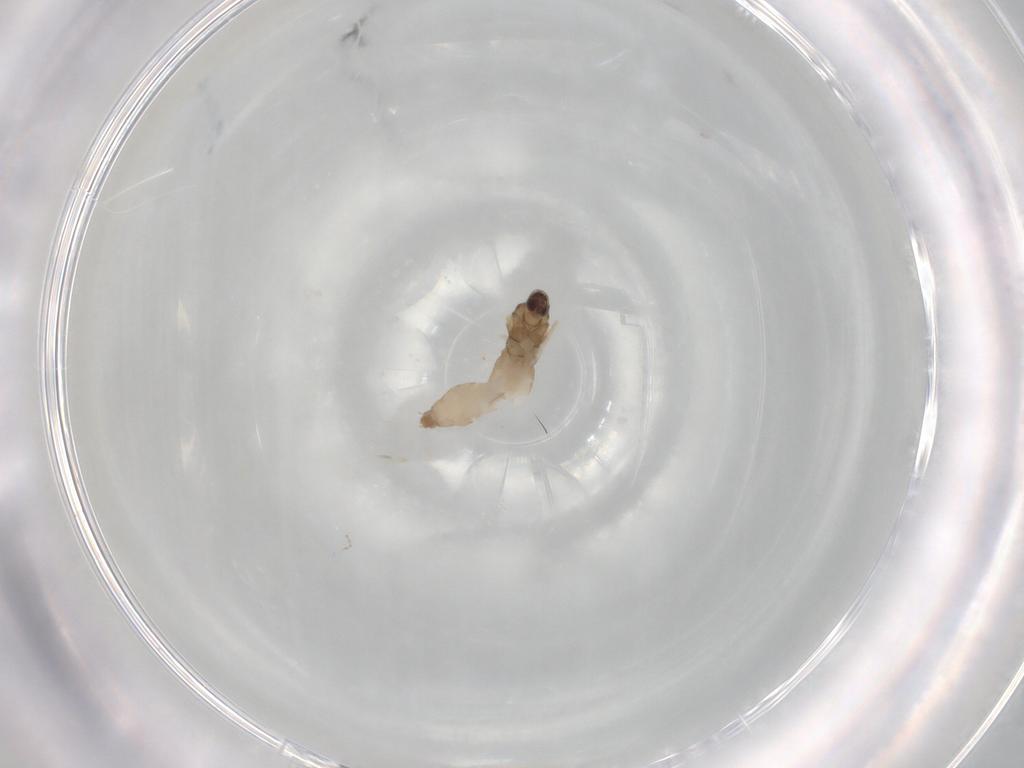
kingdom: Animalia
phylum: Arthropoda
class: Insecta
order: Diptera
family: Cecidomyiidae
